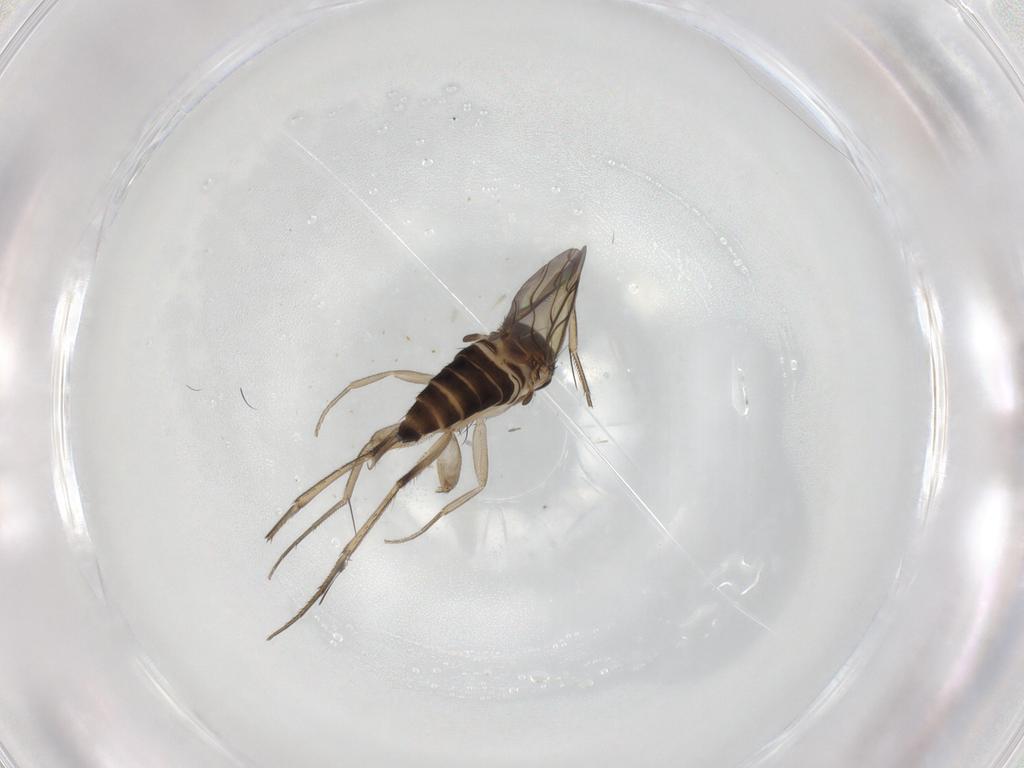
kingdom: Animalia
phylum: Arthropoda
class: Insecta
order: Diptera
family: Phoridae
